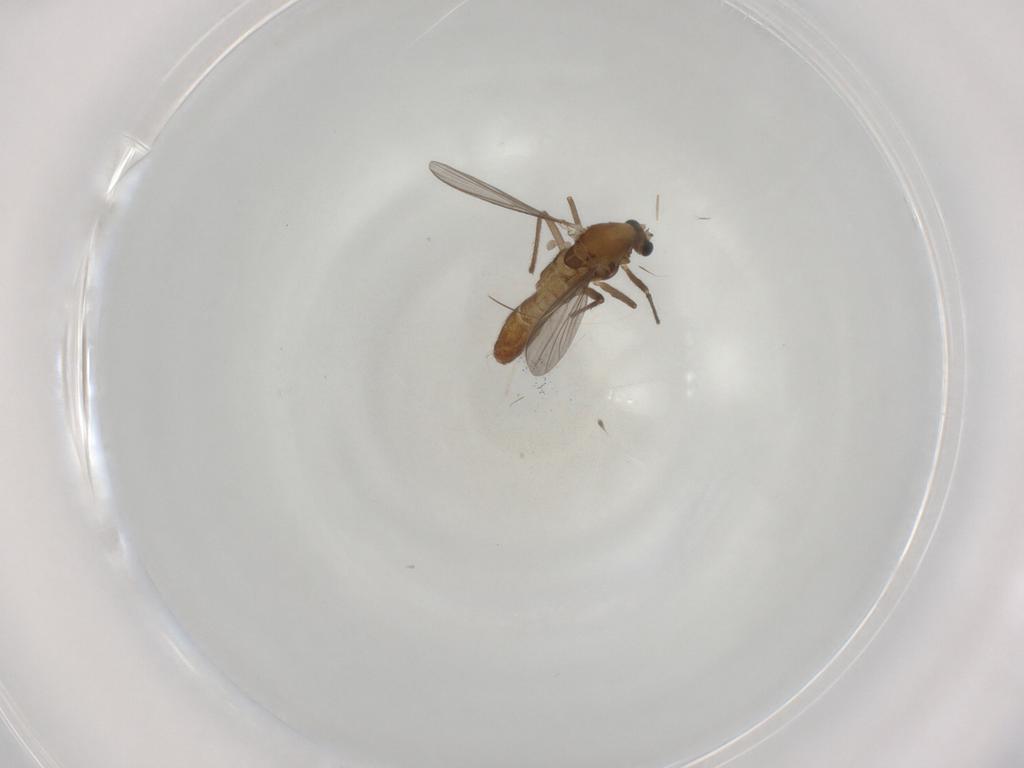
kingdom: Animalia
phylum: Arthropoda
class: Insecta
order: Diptera
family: Chironomidae
